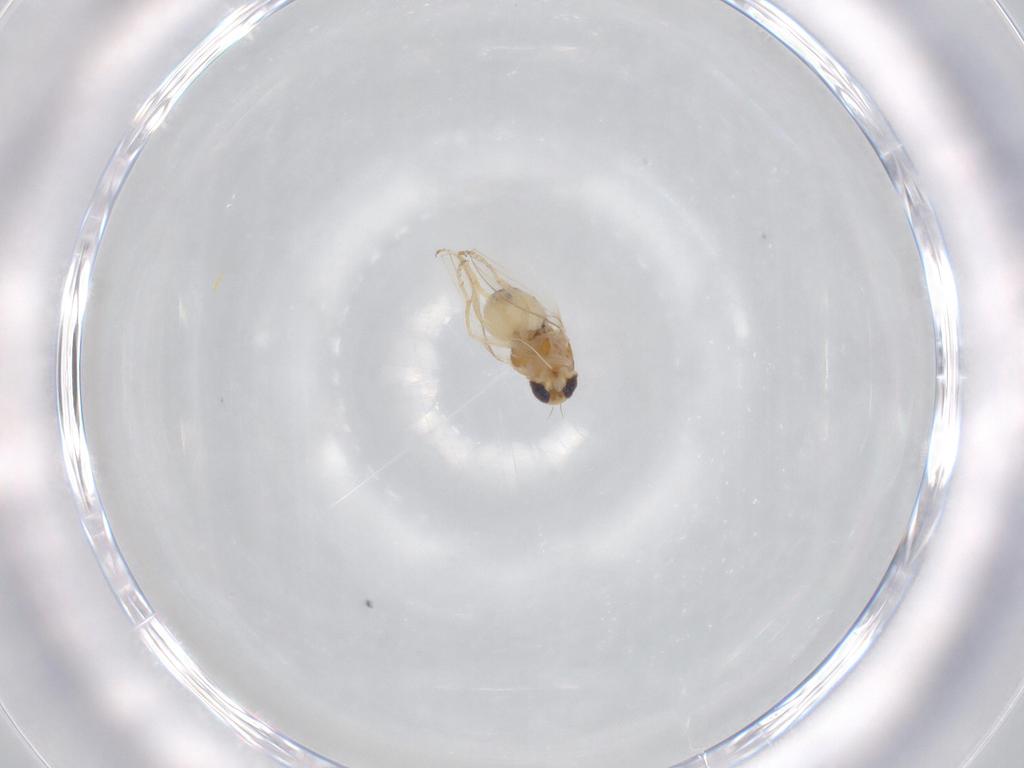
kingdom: Animalia
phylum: Arthropoda
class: Insecta
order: Diptera
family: Chyromyidae
